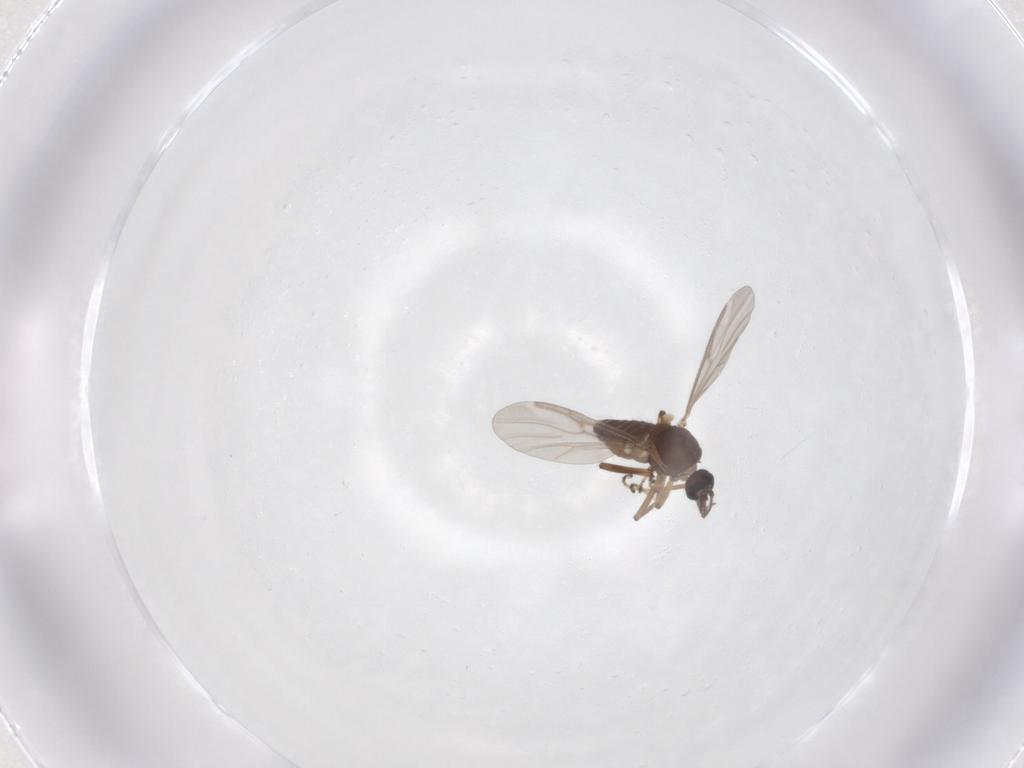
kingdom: Animalia
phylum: Arthropoda
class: Insecta
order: Diptera
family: Ceratopogonidae
